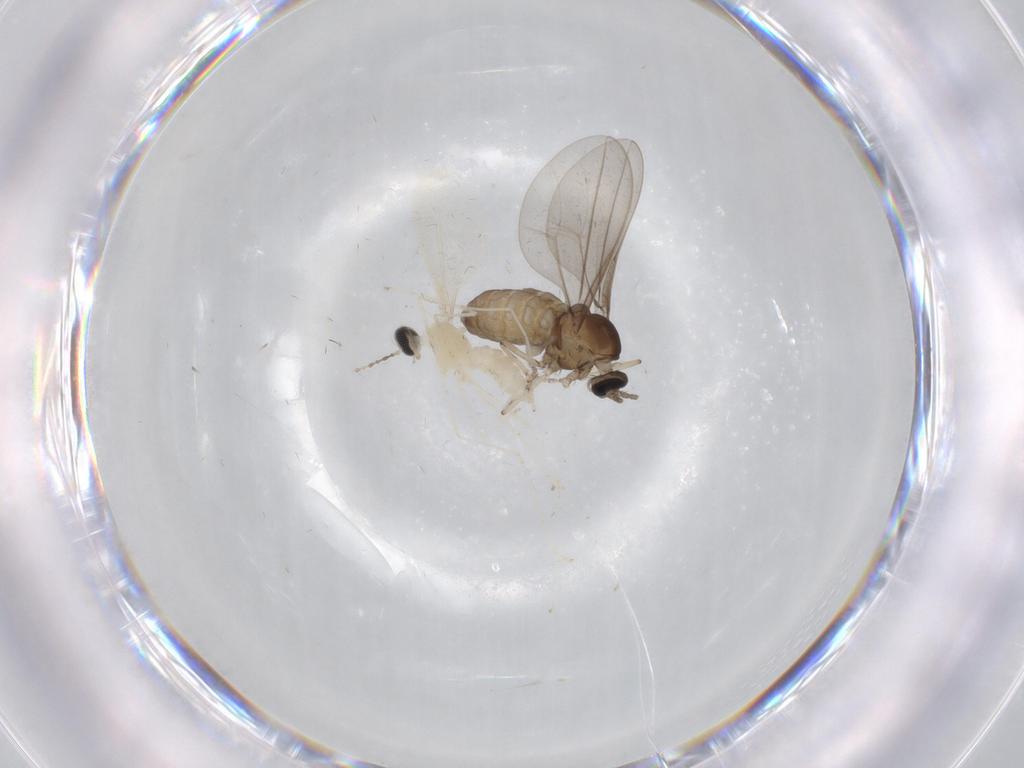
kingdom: Animalia
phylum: Arthropoda
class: Insecta
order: Diptera
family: Cecidomyiidae
